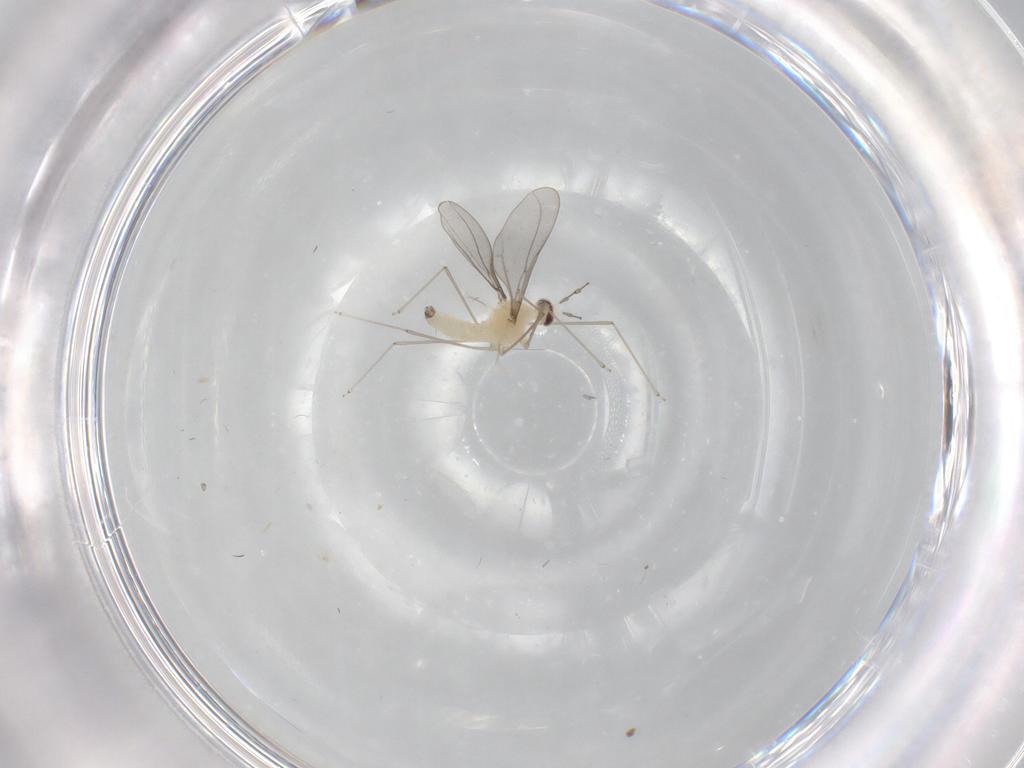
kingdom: Animalia
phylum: Arthropoda
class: Insecta
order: Diptera
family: Cecidomyiidae
